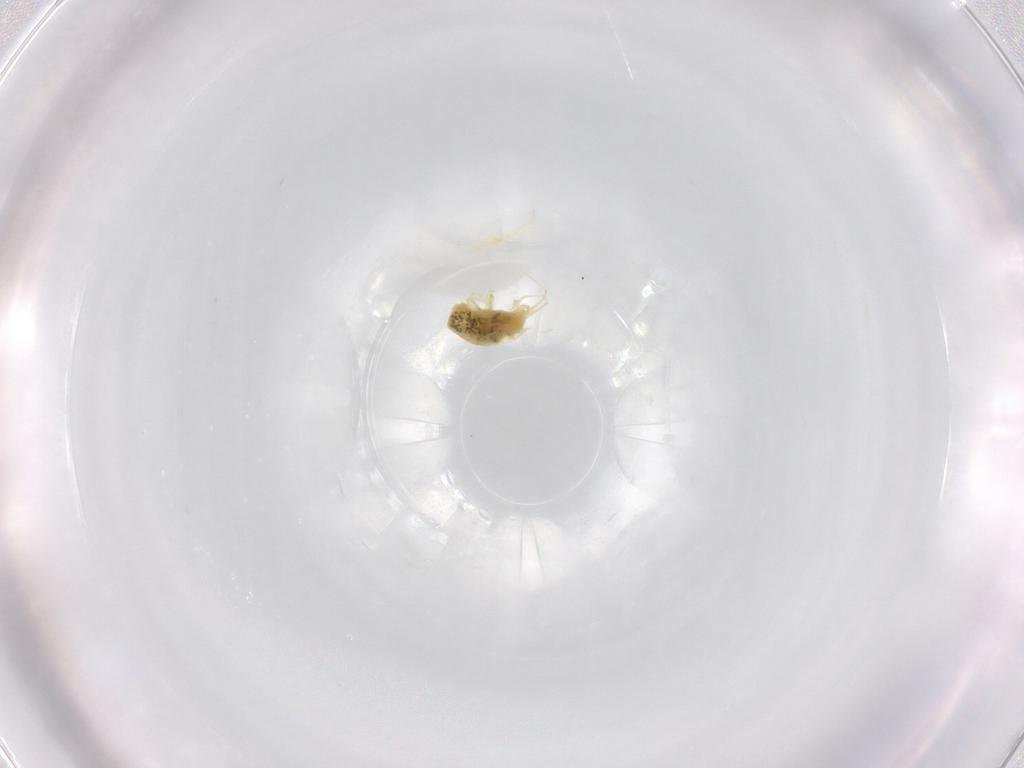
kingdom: Animalia
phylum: Arthropoda
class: Arachnida
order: Trombidiformes
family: Tetranychidae
